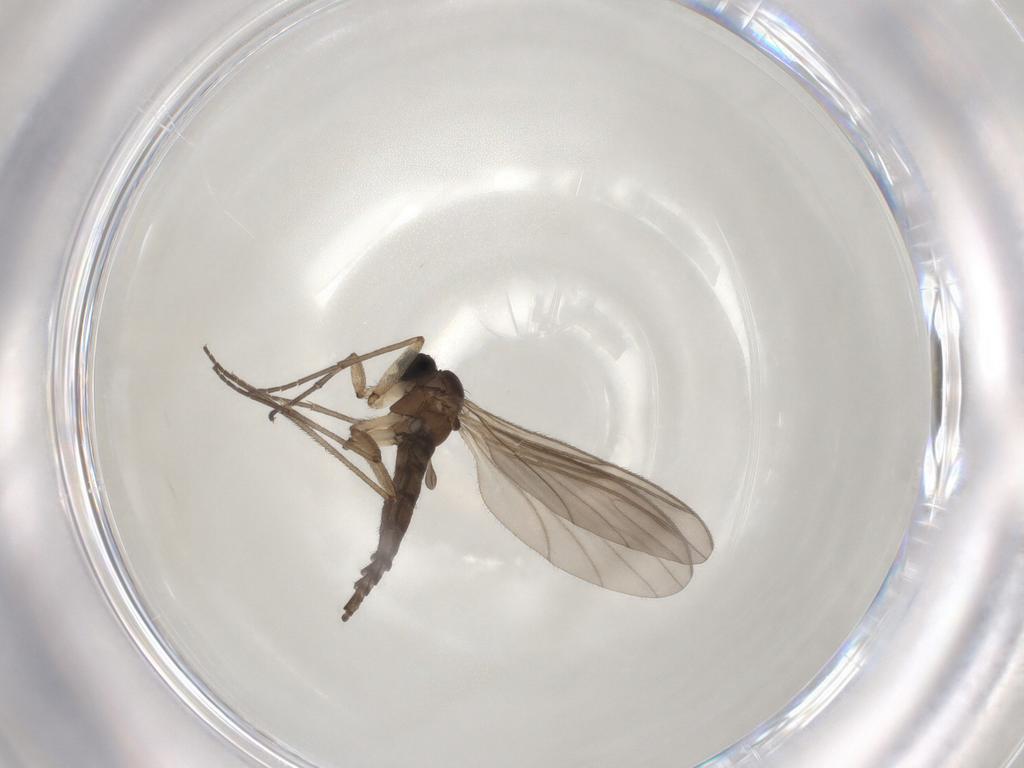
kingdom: Animalia
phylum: Arthropoda
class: Insecta
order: Diptera
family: Sciaridae
